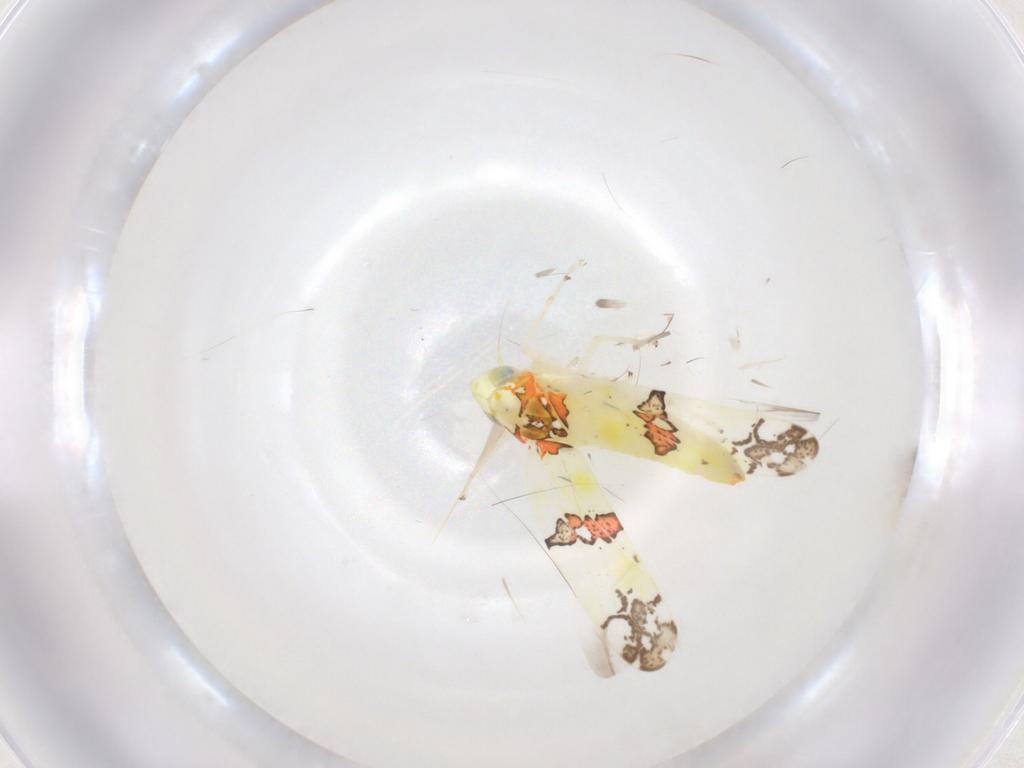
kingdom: Animalia
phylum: Arthropoda
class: Insecta
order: Hemiptera
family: Cicadellidae
